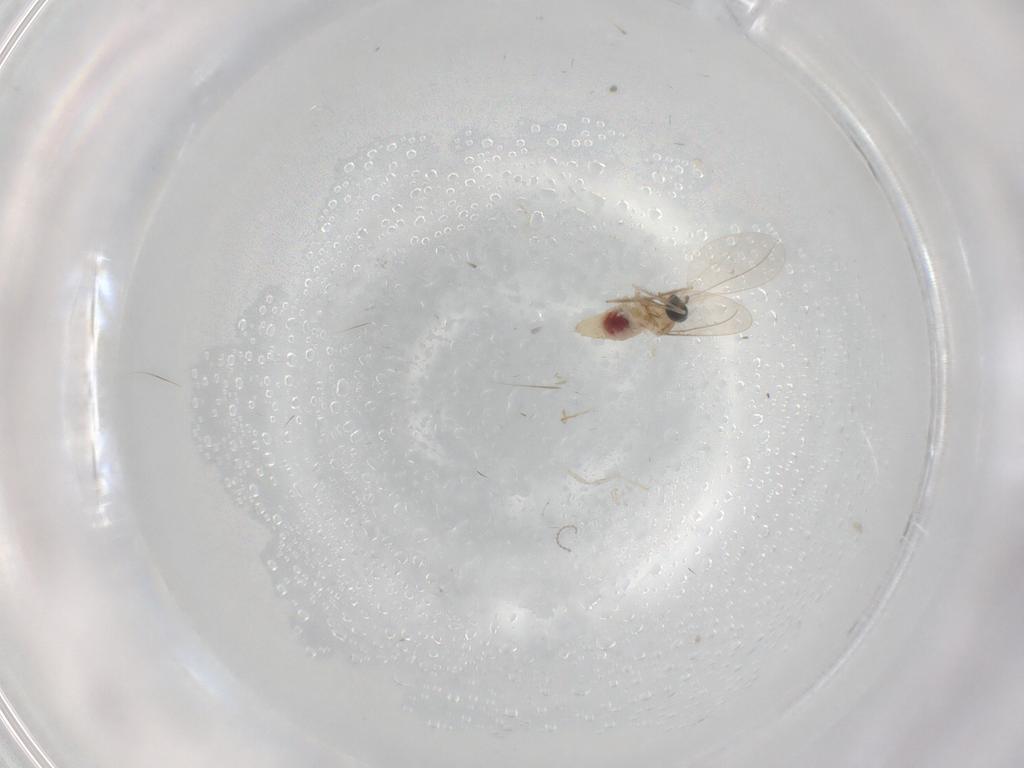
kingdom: Animalia
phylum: Arthropoda
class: Insecta
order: Diptera
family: Cecidomyiidae
